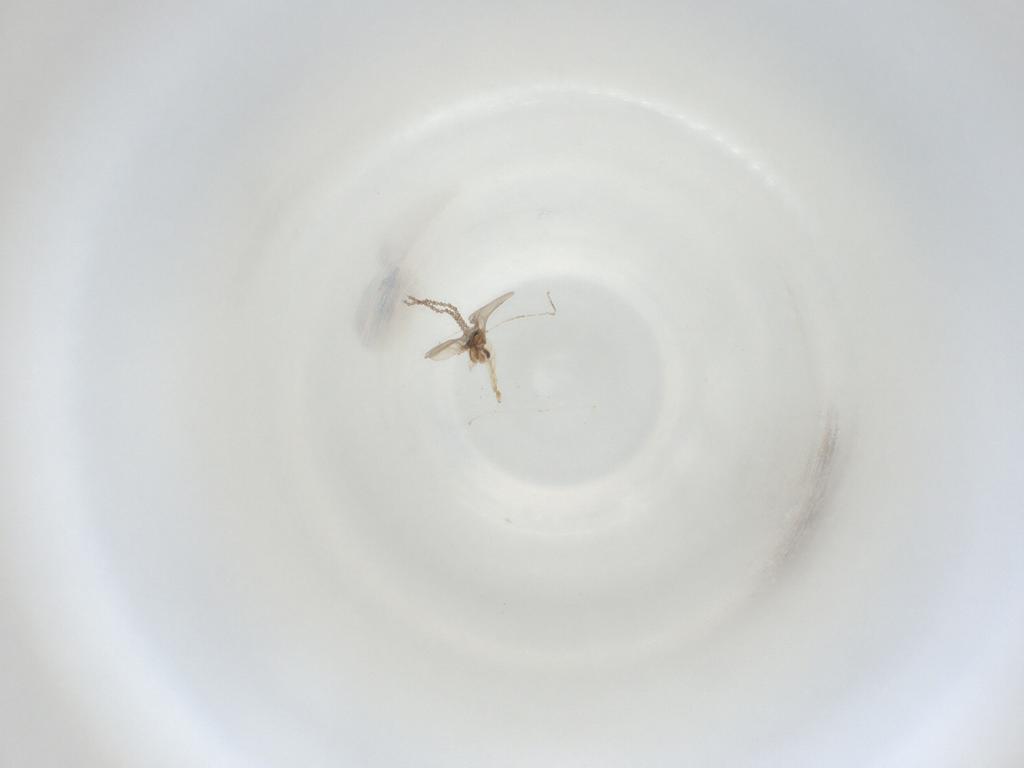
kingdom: Animalia
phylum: Arthropoda
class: Insecta
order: Diptera
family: Cecidomyiidae
